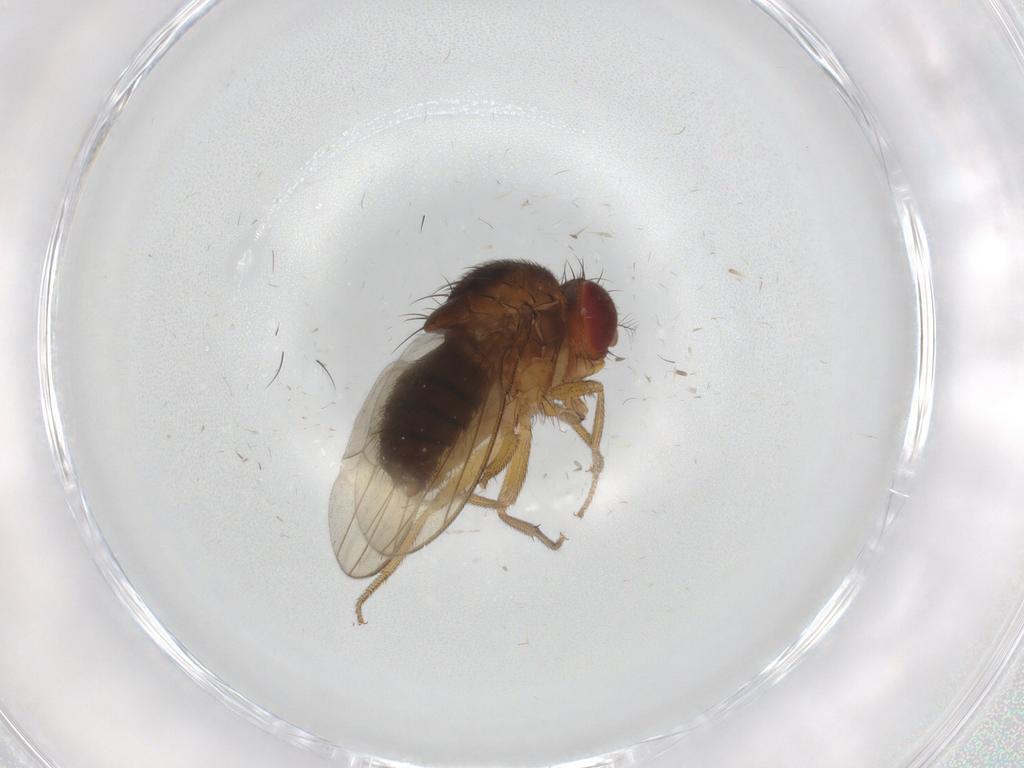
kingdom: Animalia
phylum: Arthropoda
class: Insecta
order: Diptera
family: Drosophilidae
